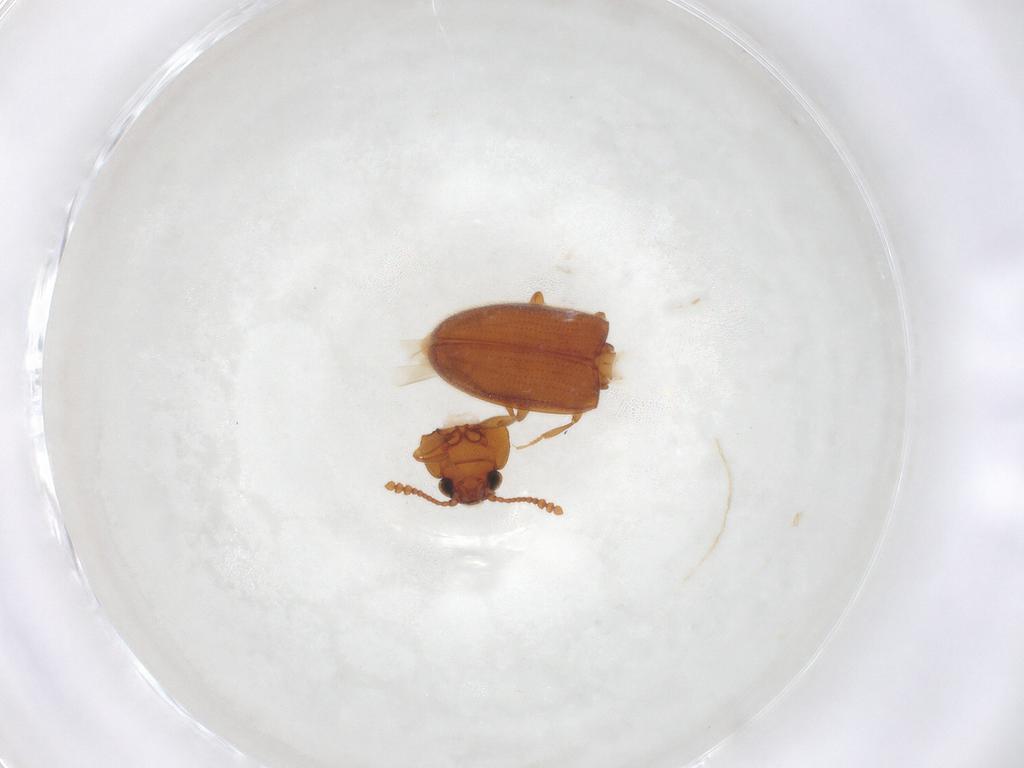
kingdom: Animalia
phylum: Arthropoda
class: Insecta
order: Coleoptera
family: Erotylidae
